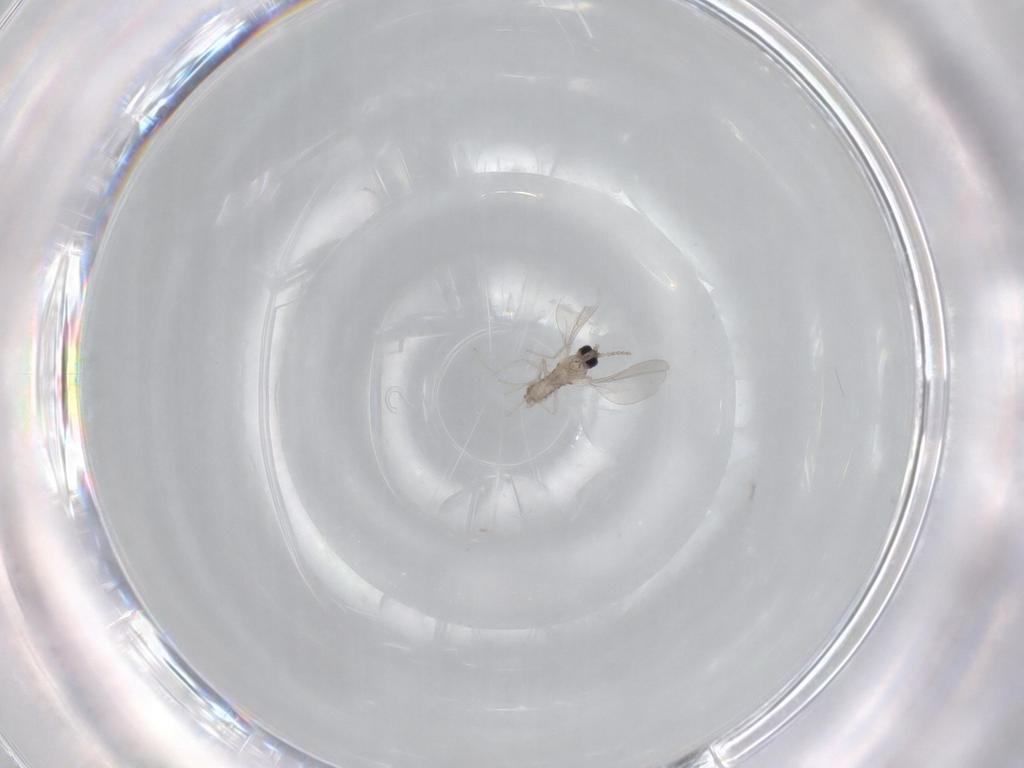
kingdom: Animalia
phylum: Arthropoda
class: Insecta
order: Diptera
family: Cecidomyiidae
